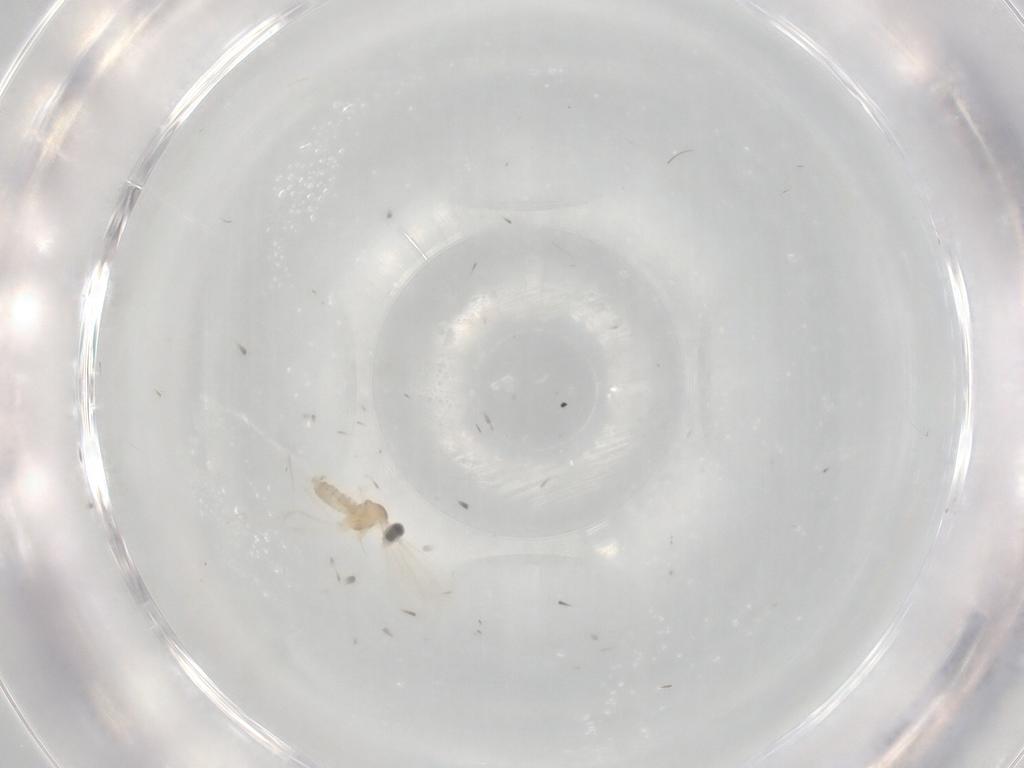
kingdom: Animalia
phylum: Arthropoda
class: Insecta
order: Diptera
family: Cecidomyiidae
